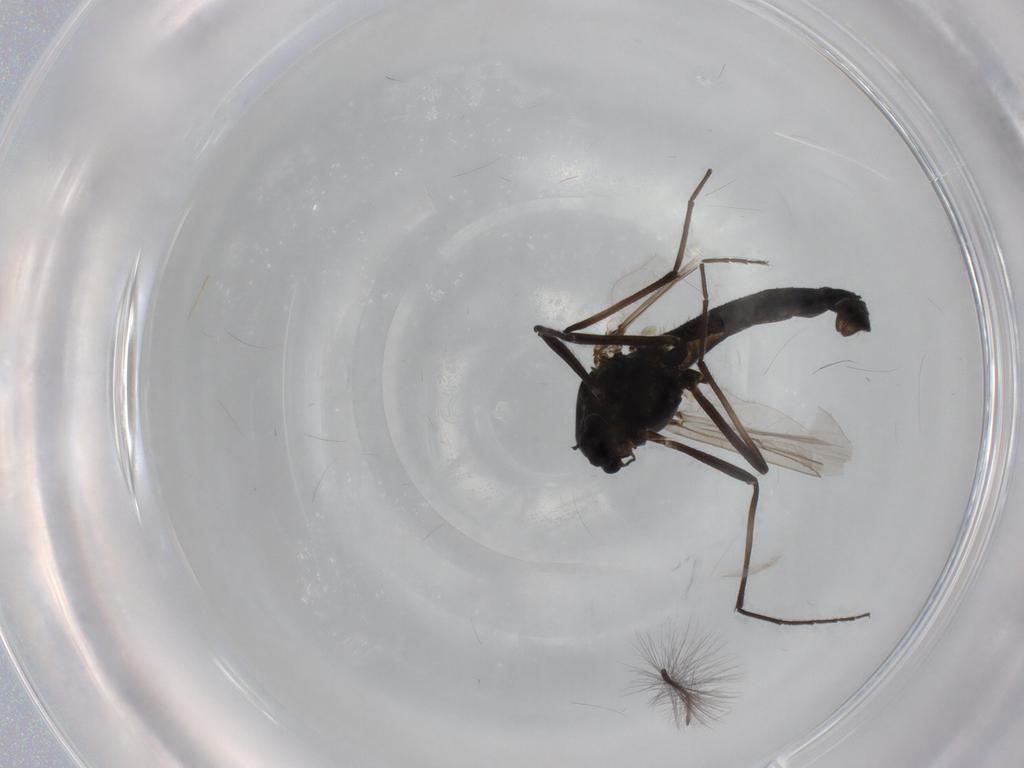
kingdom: Animalia
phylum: Arthropoda
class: Insecta
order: Diptera
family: Chironomidae
